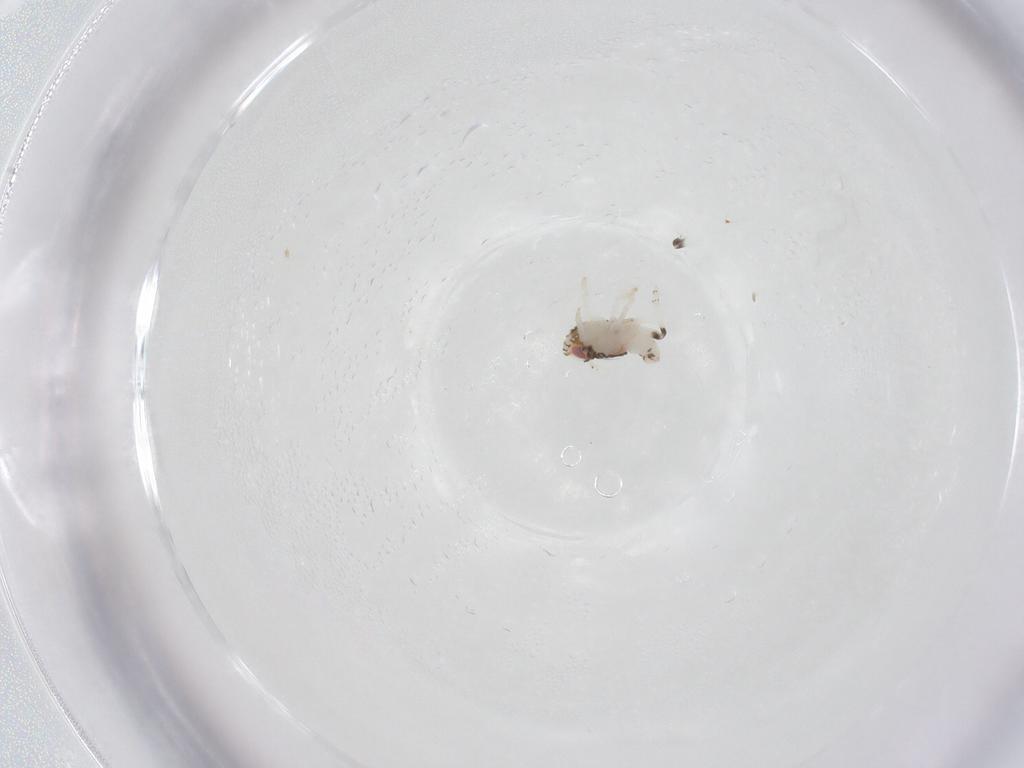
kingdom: Animalia
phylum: Arthropoda
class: Insecta
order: Hemiptera
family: Nogodinidae
